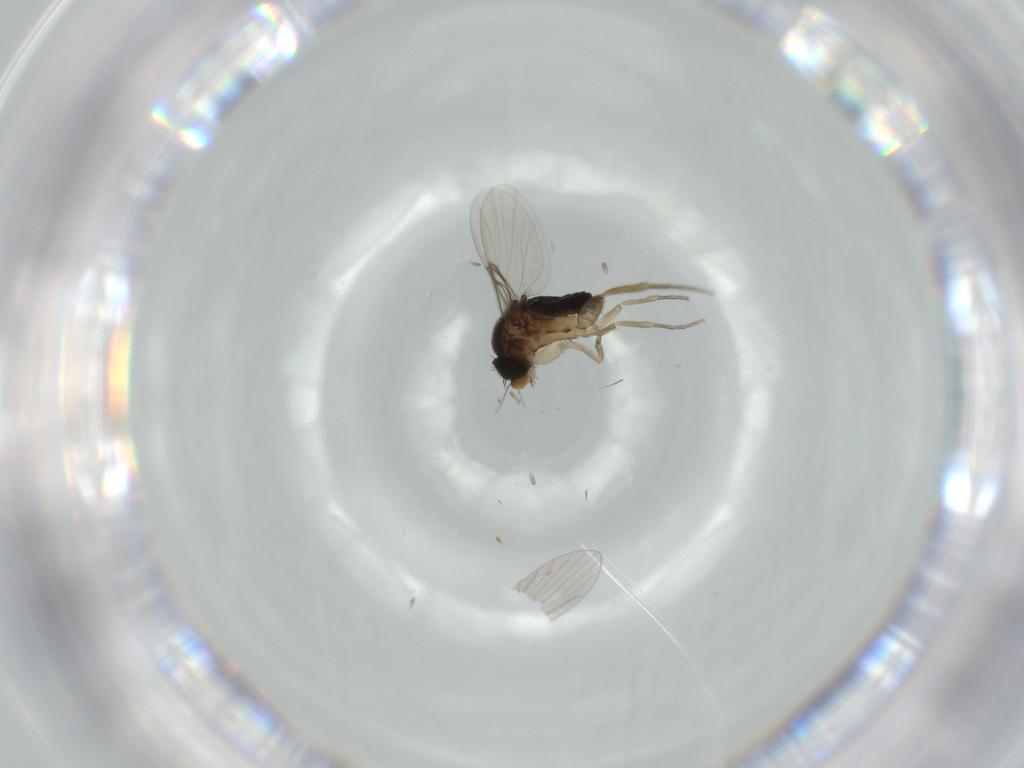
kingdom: Animalia
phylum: Arthropoda
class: Insecta
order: Diptera
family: Phoridae
